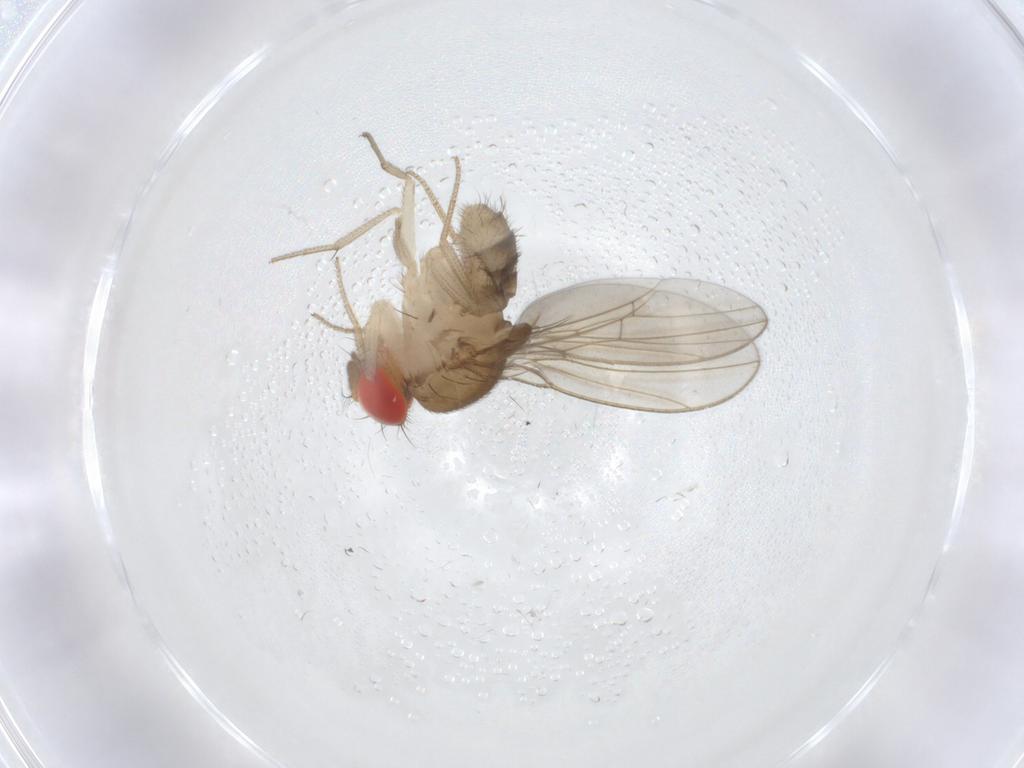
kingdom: Animalia
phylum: Arthropoda
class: Insecta
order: Diptera
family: Drosophilidae
